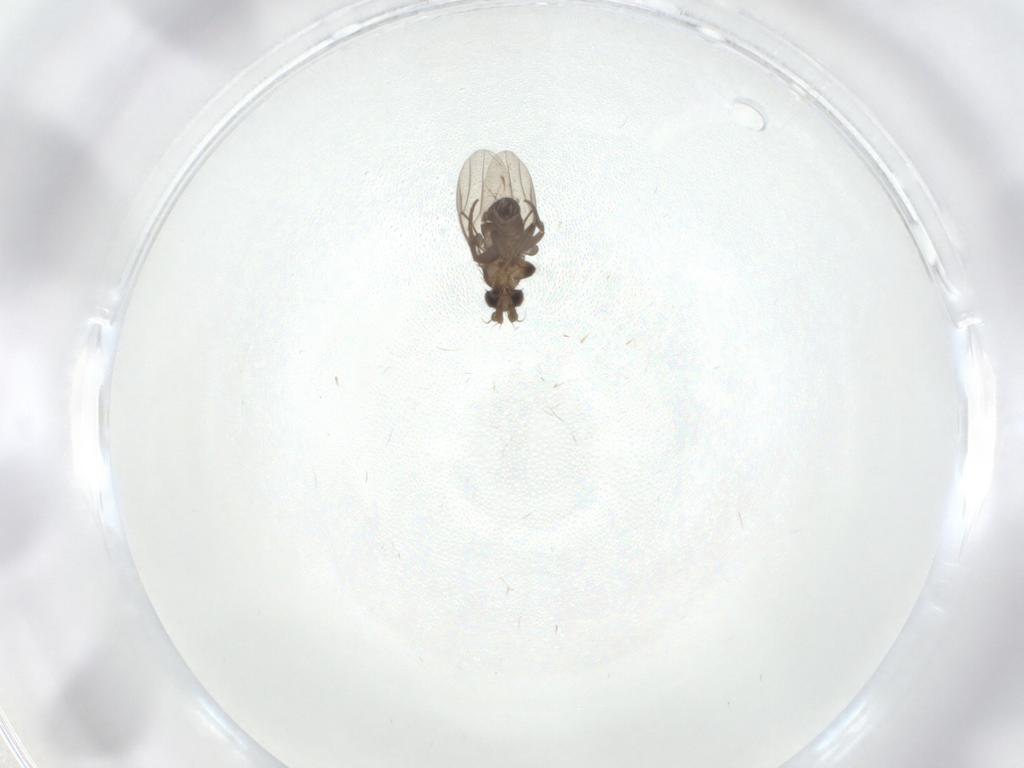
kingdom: Animalia
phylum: Arthropoda
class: Insecta
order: Diptera
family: Phoridae
